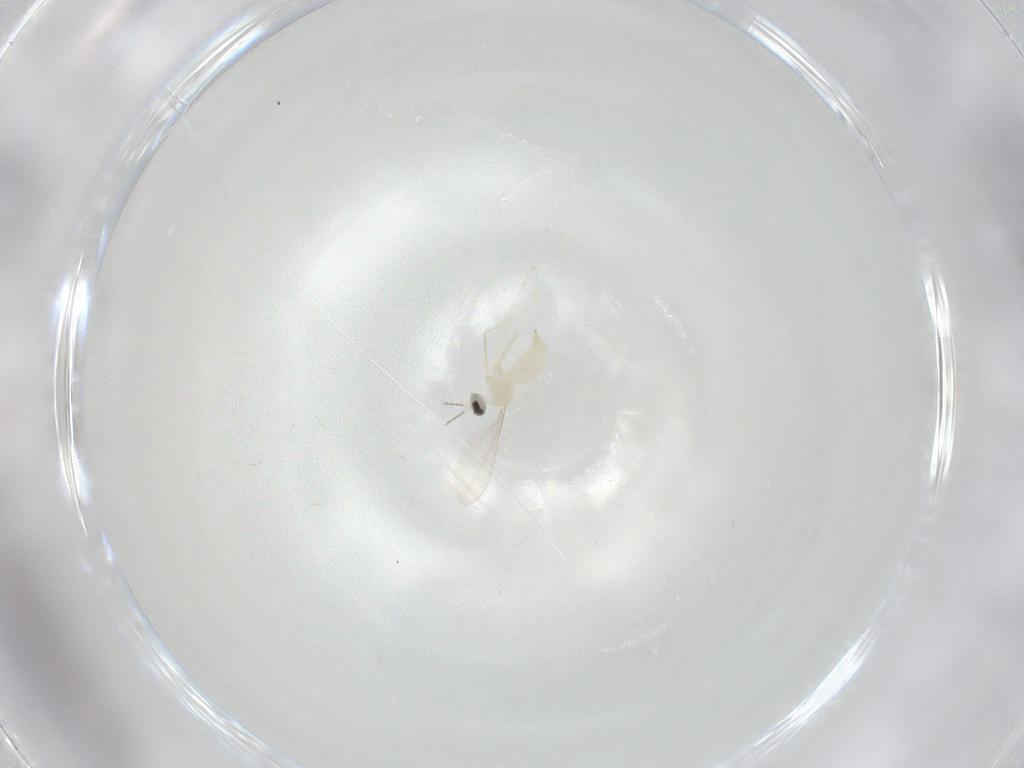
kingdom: Animalia
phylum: Arthropoda
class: Insecta
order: Diptera
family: Cecidomyiidae
